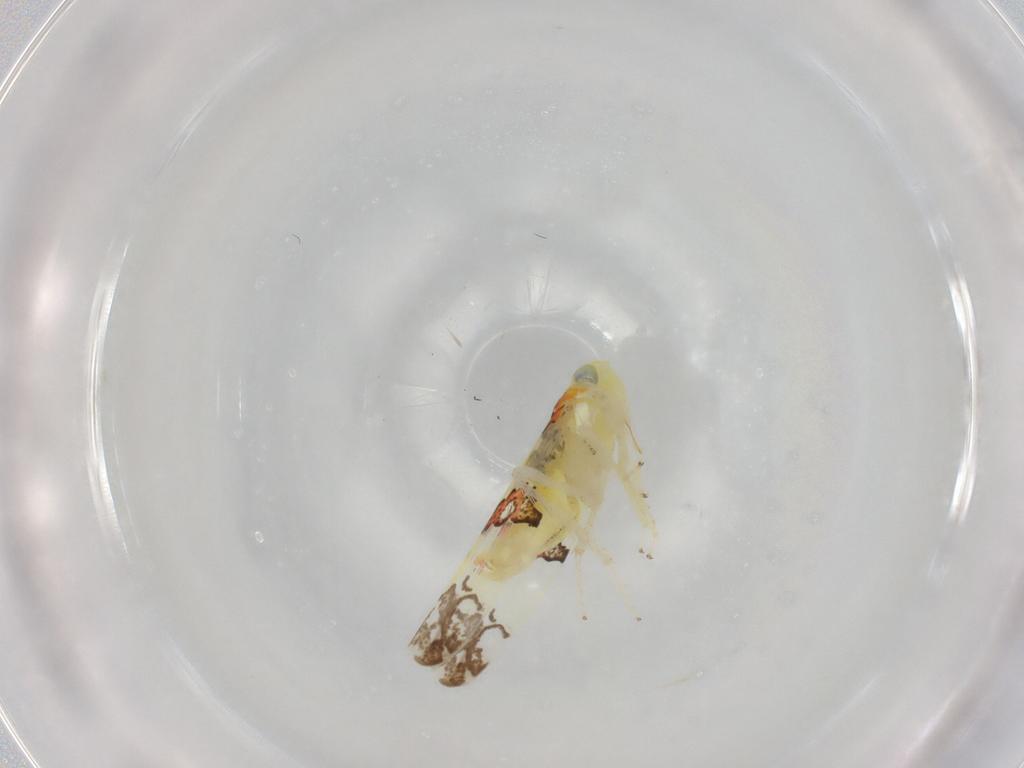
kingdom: Animalia
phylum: Arthropoda
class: Insecta
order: Hemiptera
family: Cicadellidae
